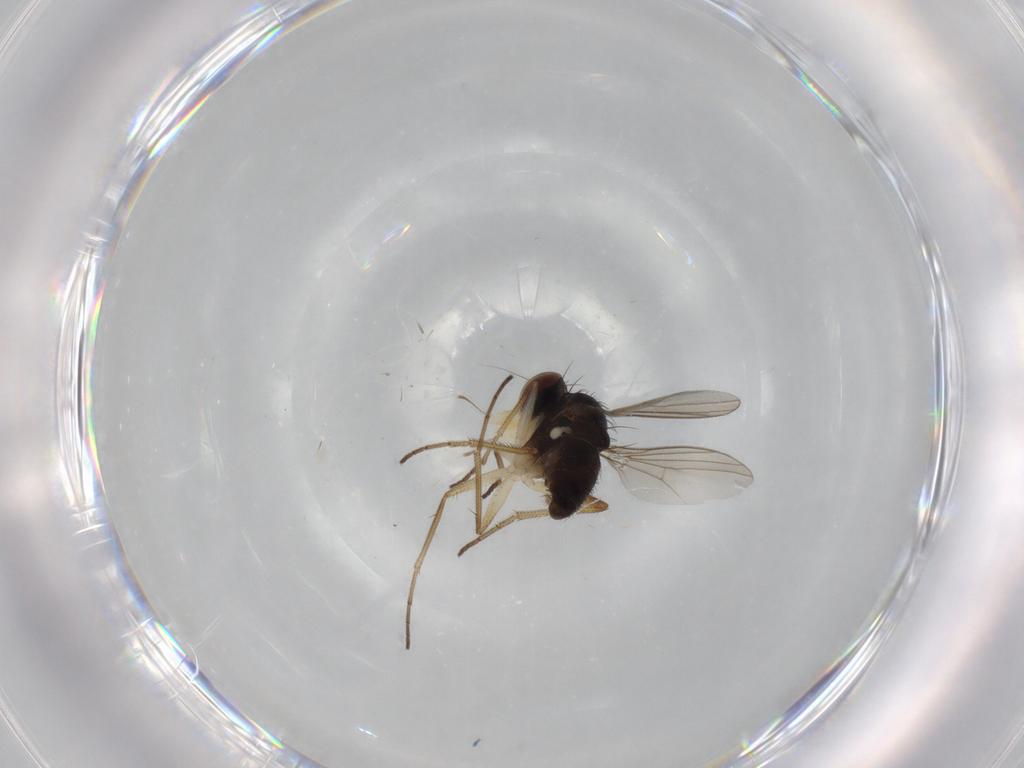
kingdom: Animalia
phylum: Arthropoda
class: Insecta
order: Diptera
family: Dolichopodidae
